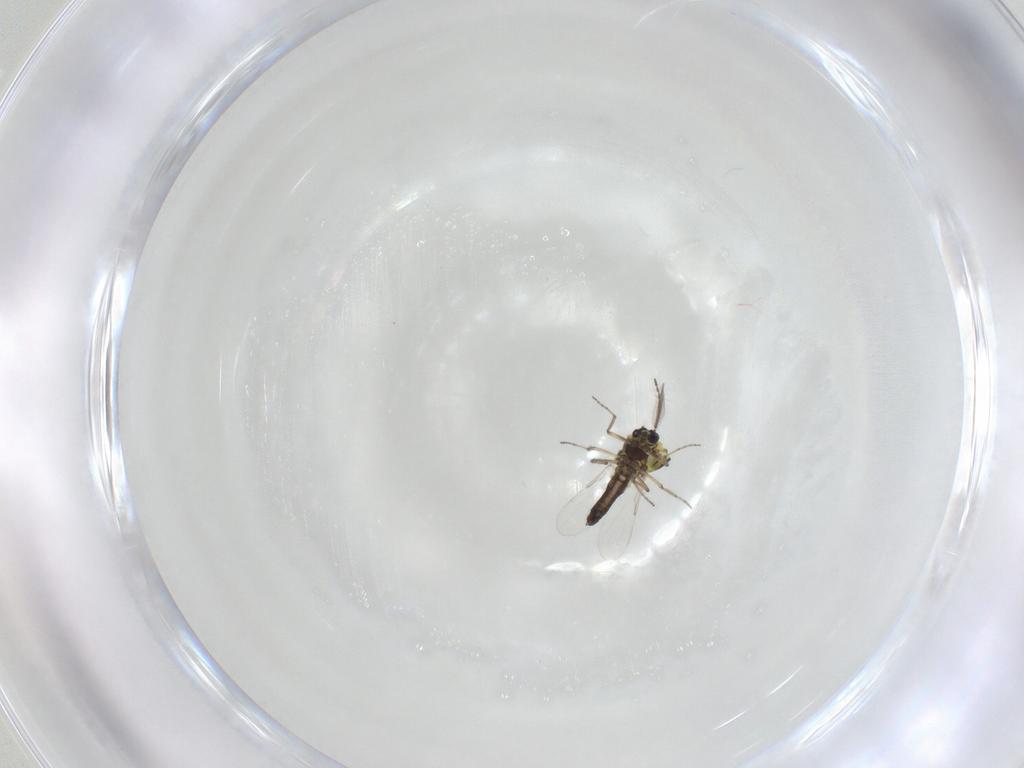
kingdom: Animalia
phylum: Arthropoda
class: Insecta
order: Diptera
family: Ceratopogonidae
